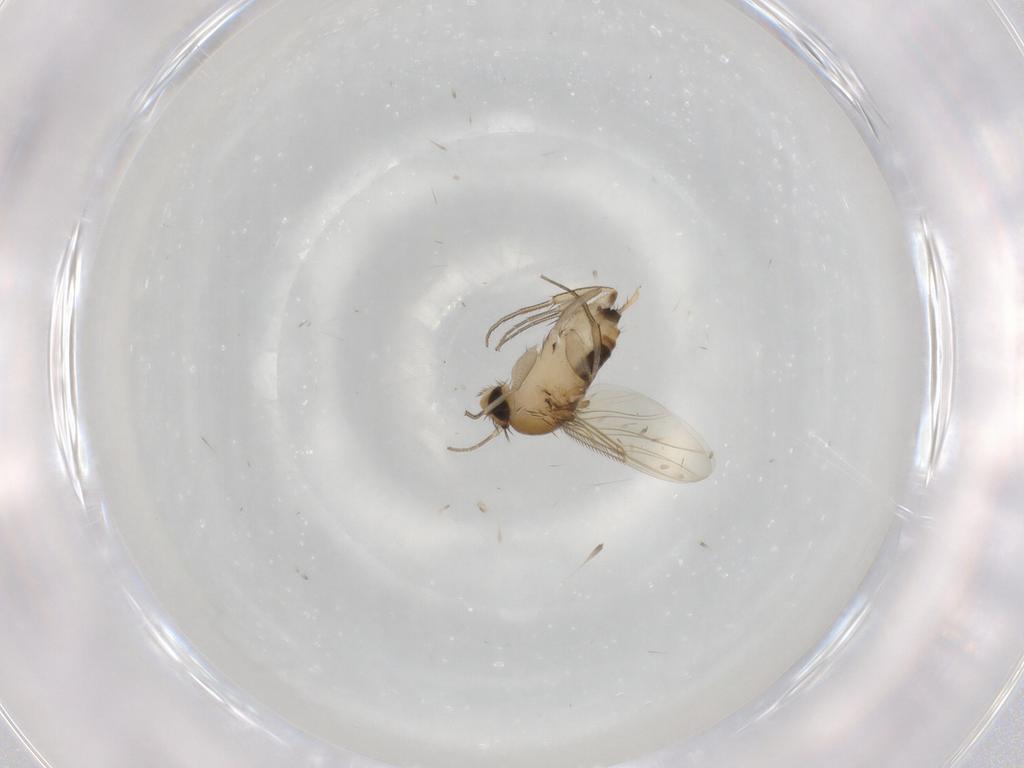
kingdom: Animalia
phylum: Arthropoda
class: Insecta
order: Diptera
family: Phoridae
